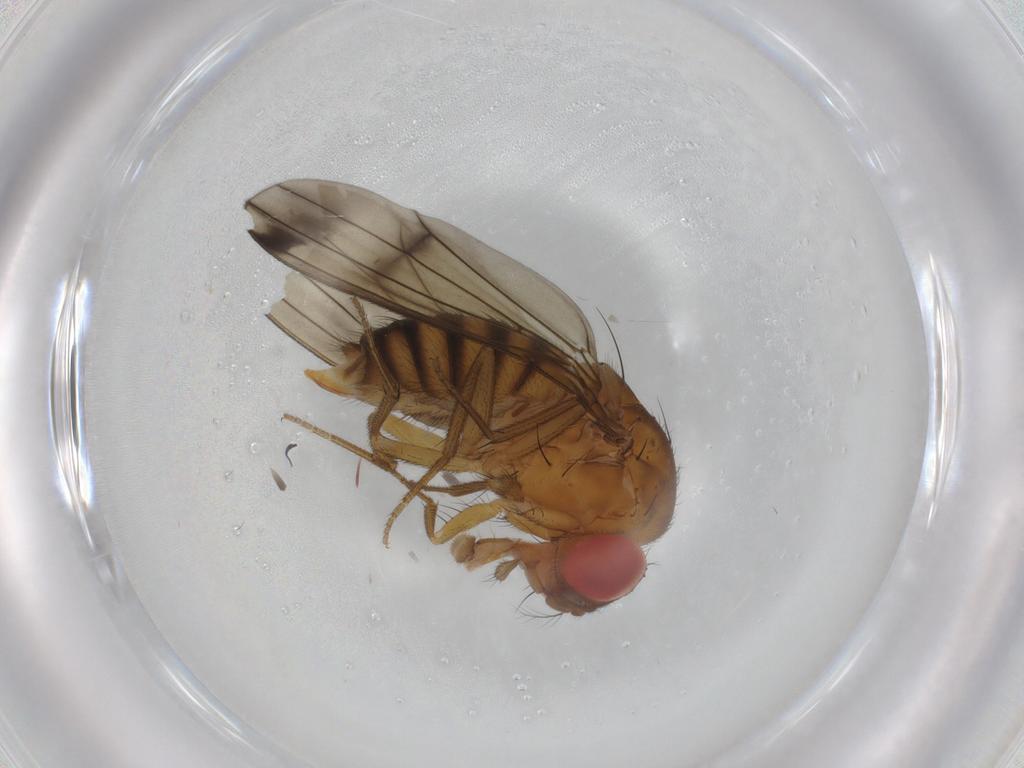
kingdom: Animalia
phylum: Arthropoda
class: Insecta
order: Diptera
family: Drosophilidae
